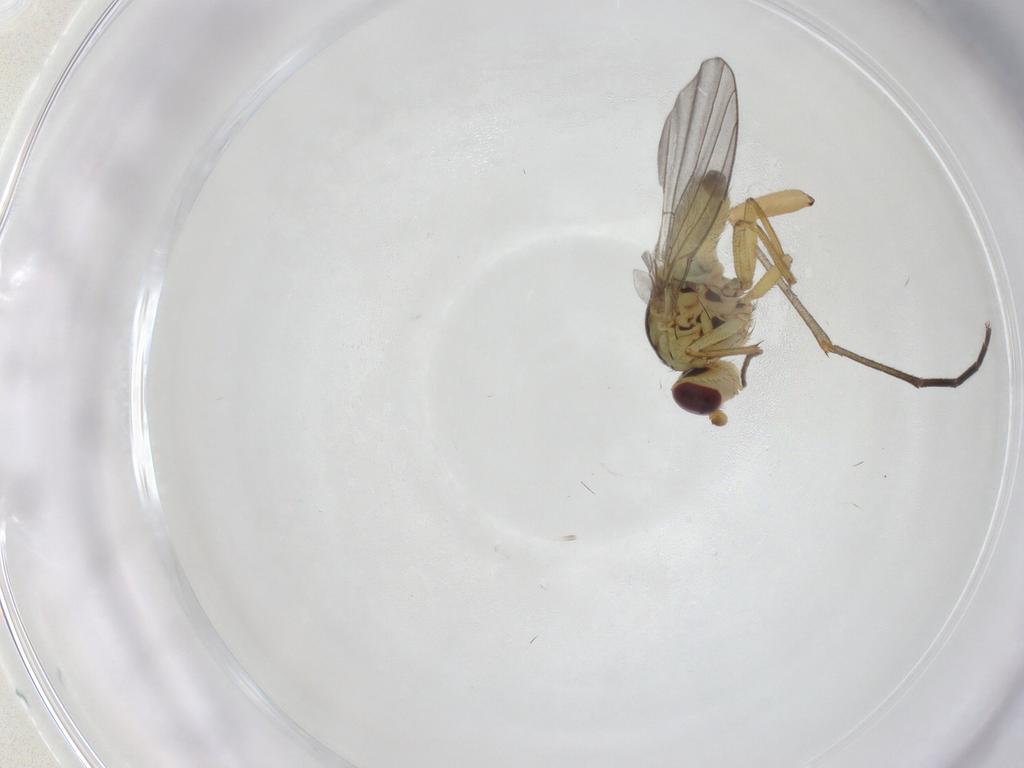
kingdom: Animalia
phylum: Arthropoda
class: Insecta
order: Diptera
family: Mycetophilidae
